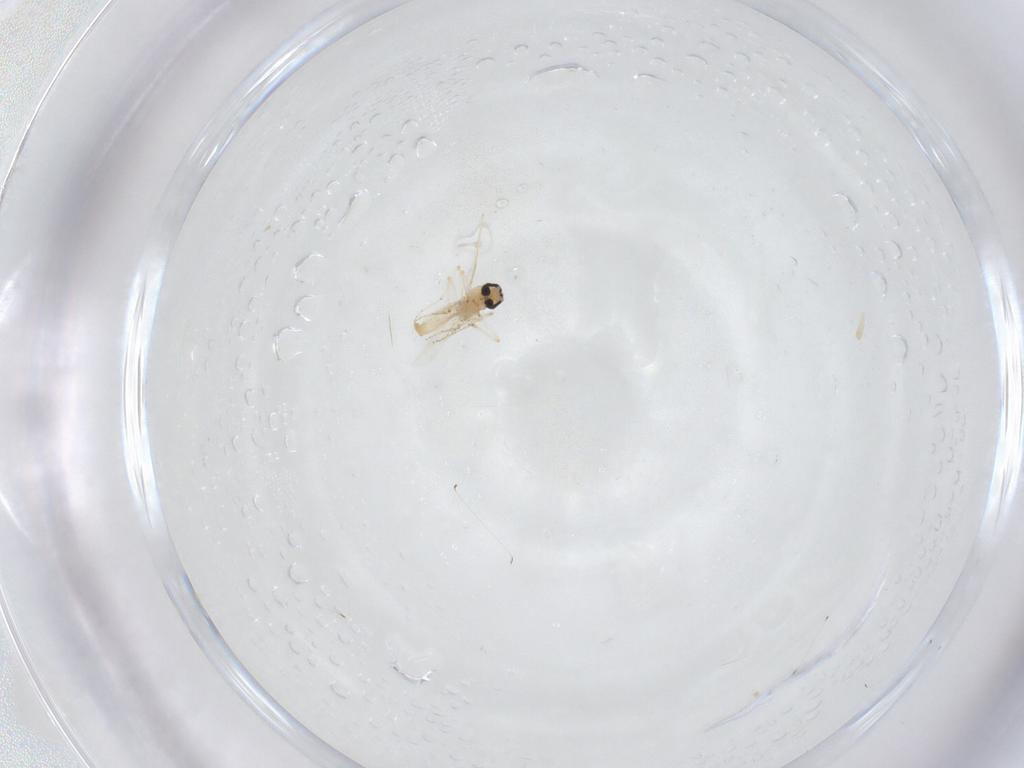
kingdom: Animalia
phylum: Arthropoda
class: Insecta
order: Diptera
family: Ceratopogonidae
